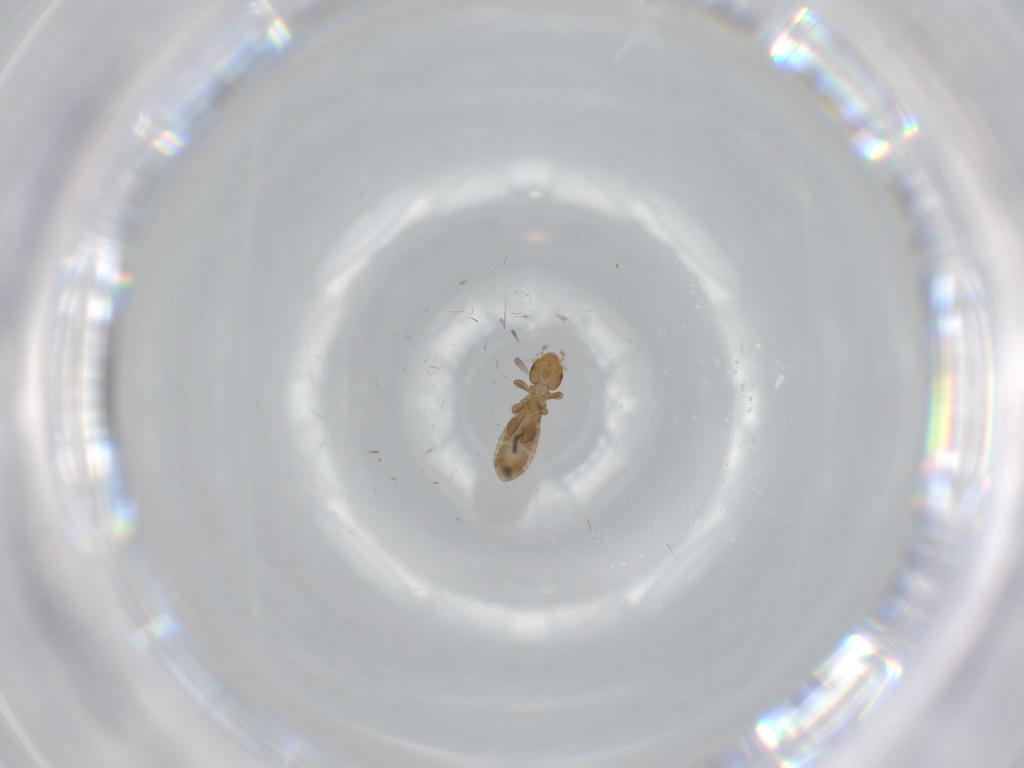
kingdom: Animalia
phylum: Arthropoda
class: Insecta
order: Psocodea
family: Liposcelididae
